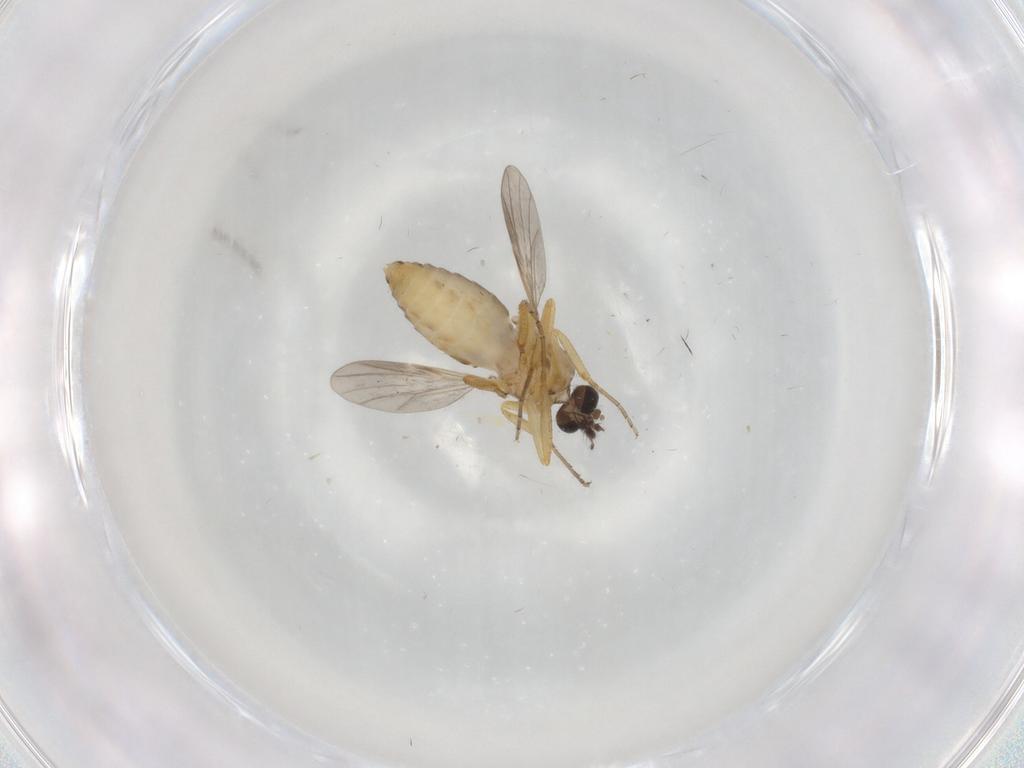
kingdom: Animalia
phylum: Arthropoda
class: Insecta
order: Diptera
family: Ceratopogonidae
